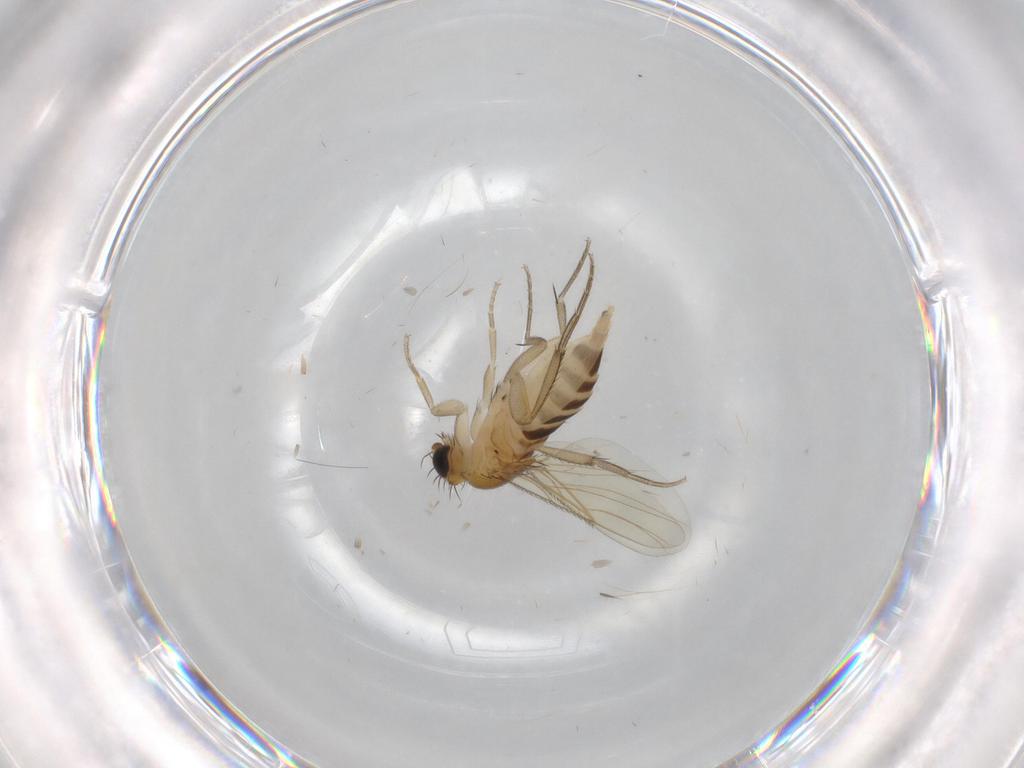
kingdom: Animalia
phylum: Arthropoda
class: Insecta
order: Diptera
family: Phoridae
